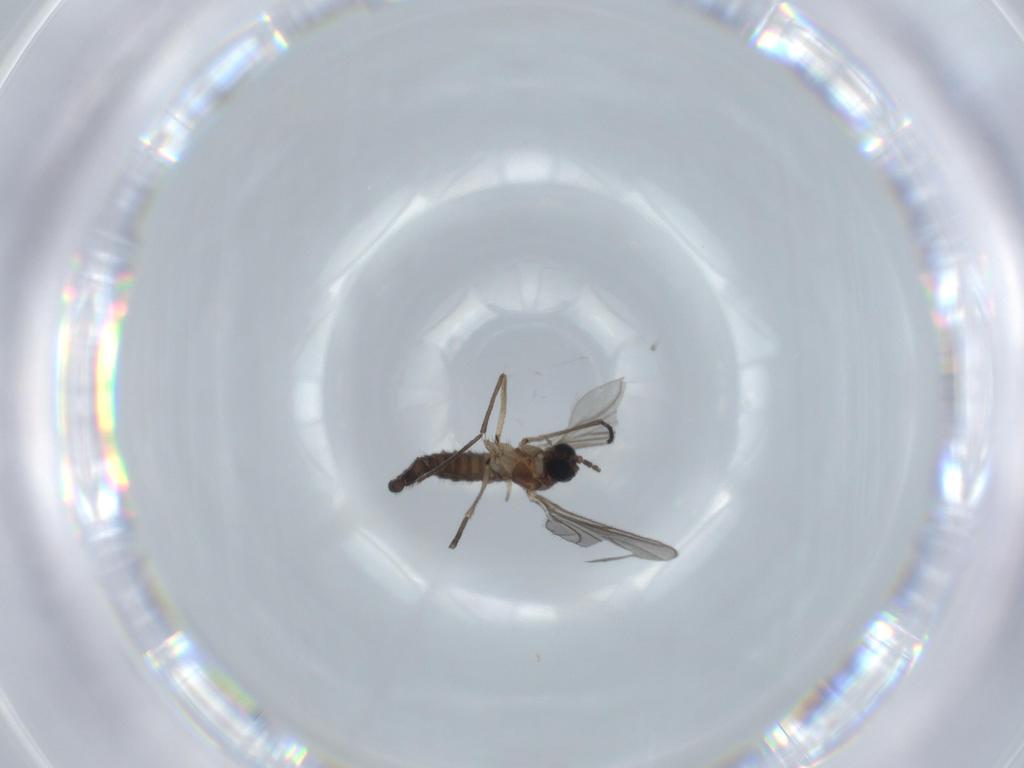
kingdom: Animalia
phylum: Arthropoda
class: Insecta
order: Diptera
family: Sciaridae
